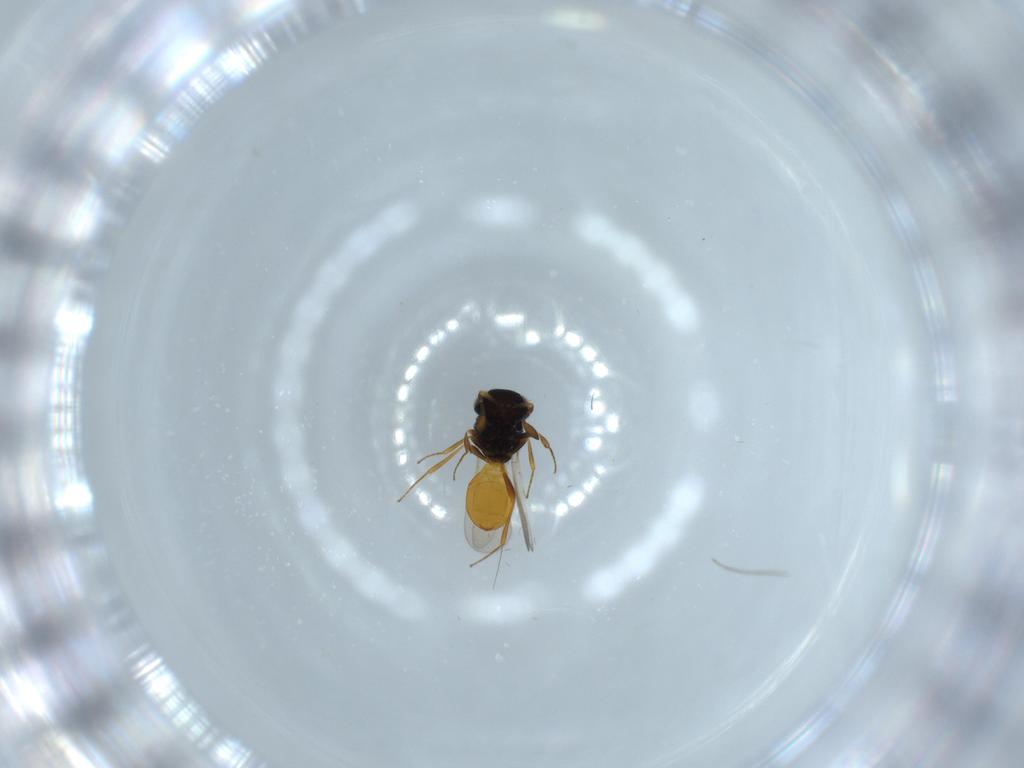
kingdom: Animalia
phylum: Arthropoda
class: Insecta
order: Hymenoptera
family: Scelionidae
